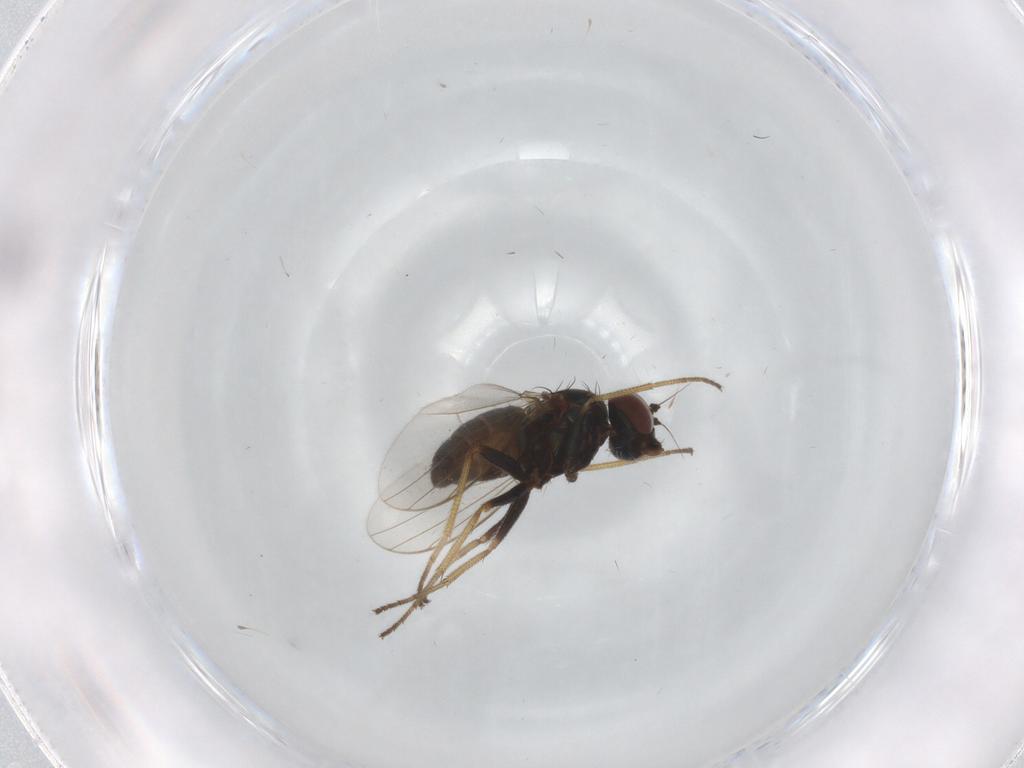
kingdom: Animalia
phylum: Arthropoda
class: Insecta
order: Diptera
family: Dolichopodidae
